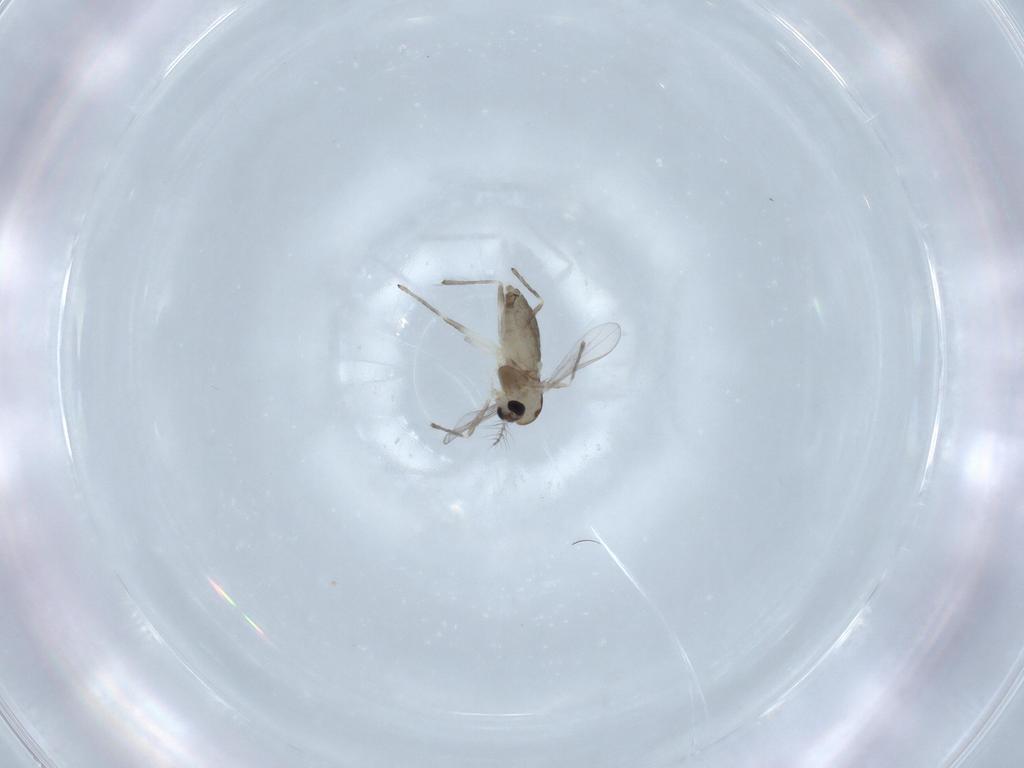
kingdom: Animalia
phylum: Arthropoda
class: Insecta
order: Diptera
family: Chironomidae
